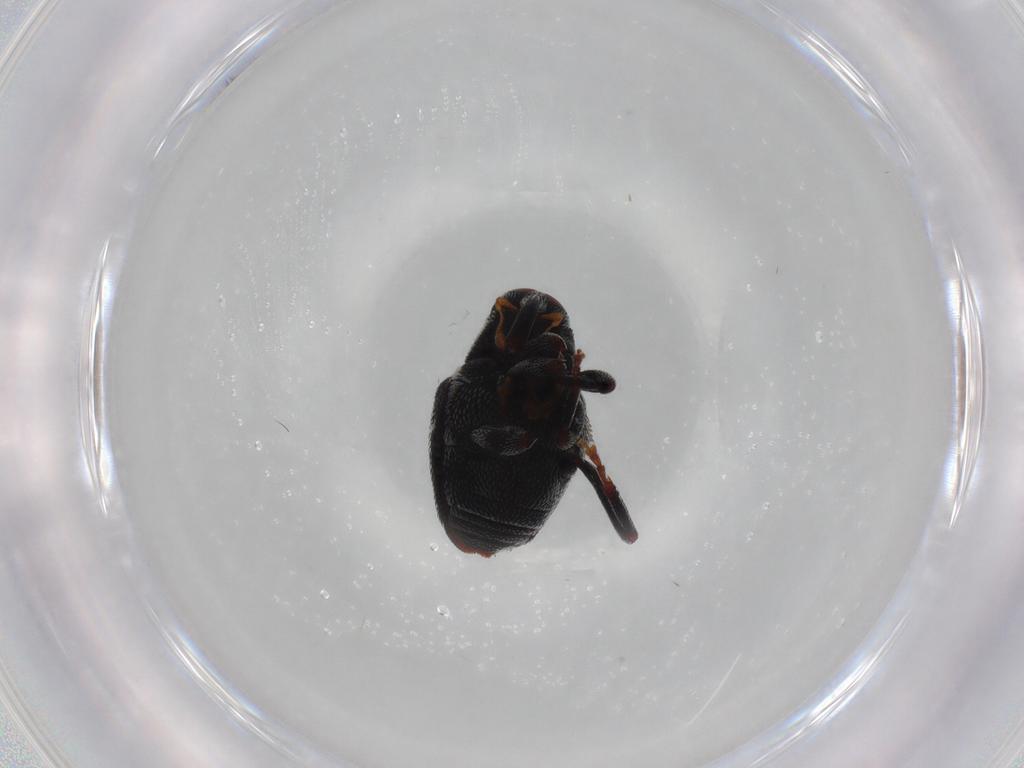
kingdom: Animalia
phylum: Arthropoda
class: Insecta
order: Coleoptera
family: Curculionidae
